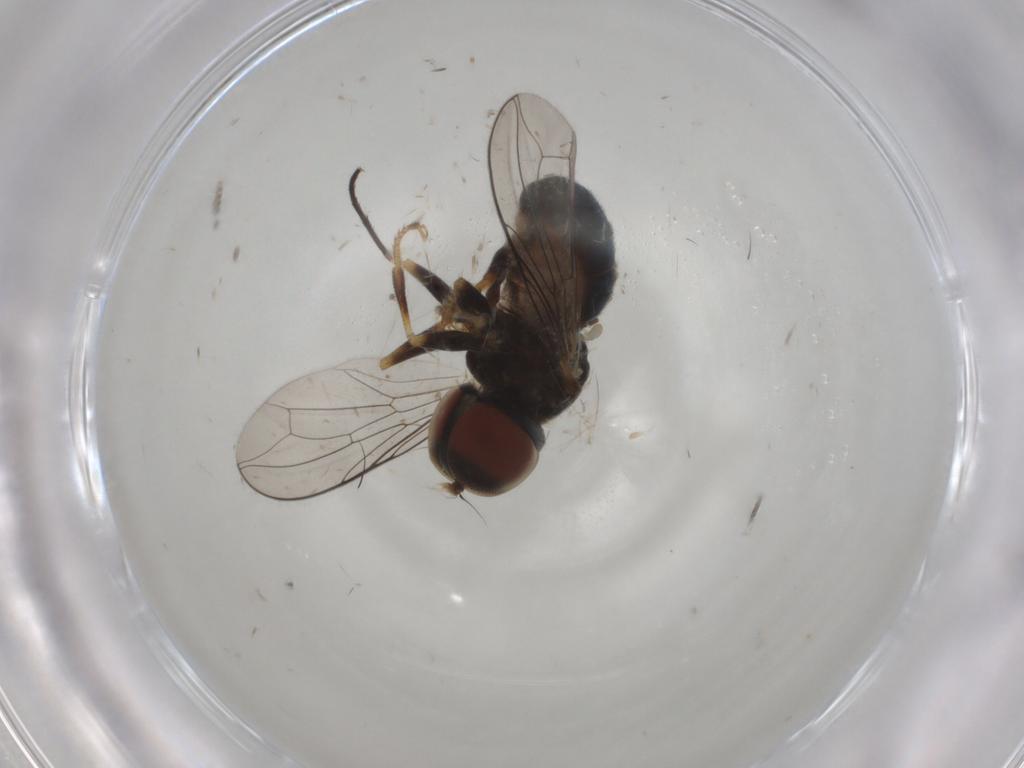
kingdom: Animalia
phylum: Arthropoda
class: Insecta
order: Diptera
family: Pipunculidae
